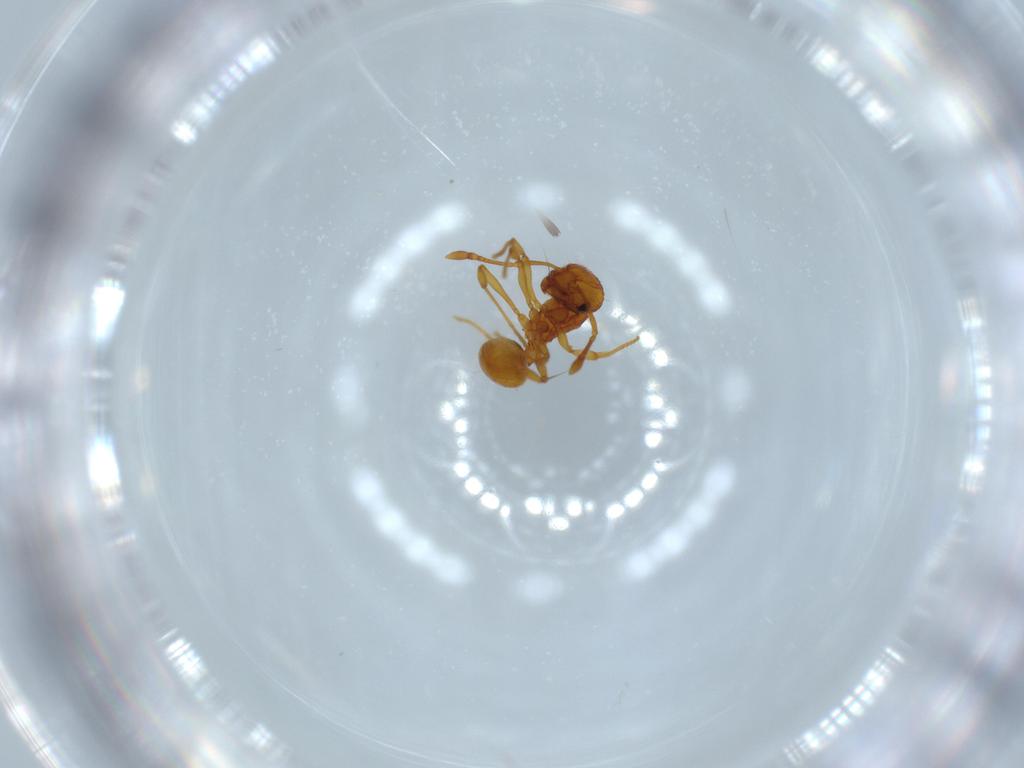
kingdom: Animalia
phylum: Arthropoda
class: Insecta
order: Hymenoptera
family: Formicidae
